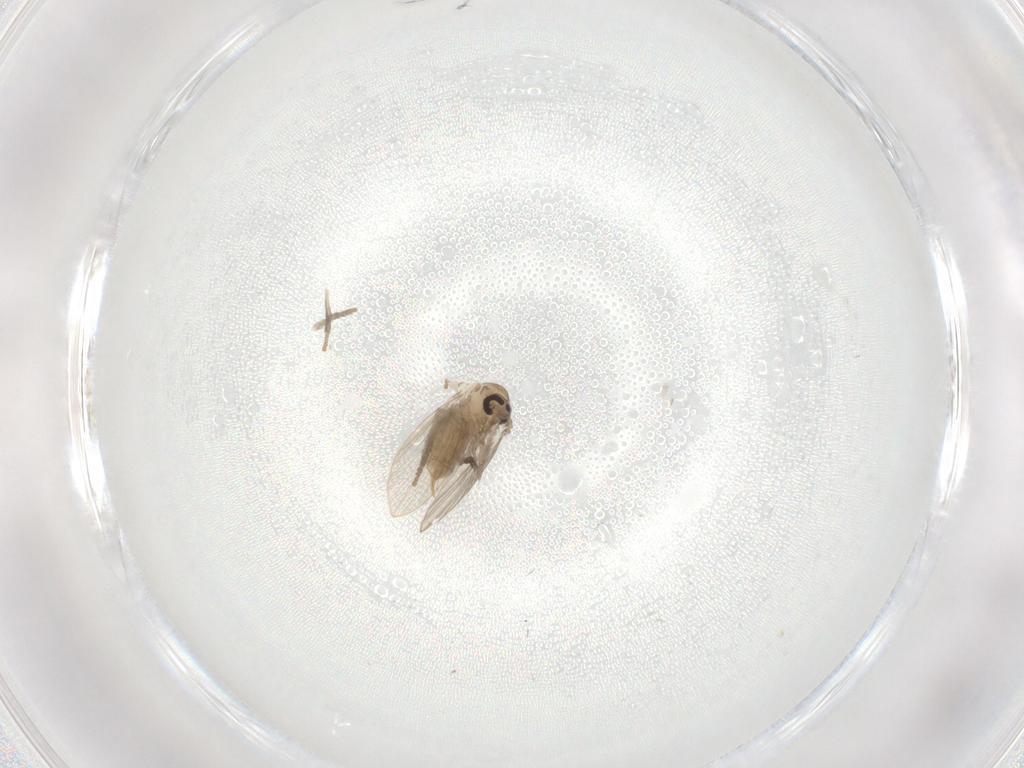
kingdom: Animalia
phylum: Arthropoda
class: Insecta
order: Diptera
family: Psychodidae
